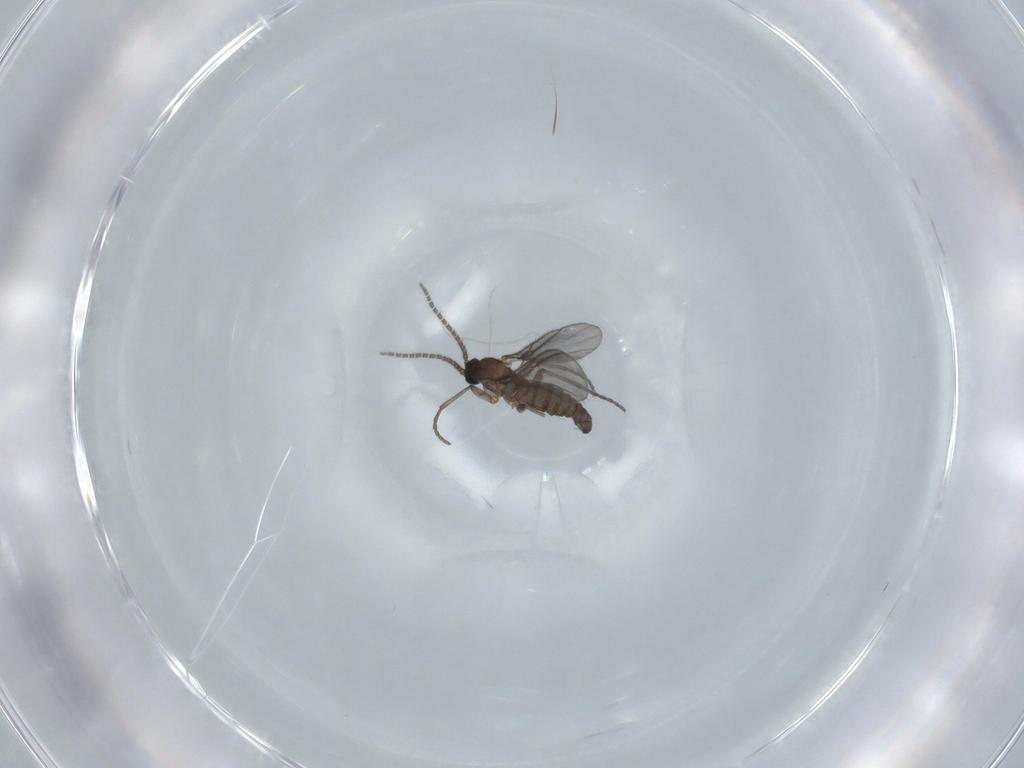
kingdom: Animalia
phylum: Arthropoda
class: Insecta
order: Diptera
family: Sciaridae
